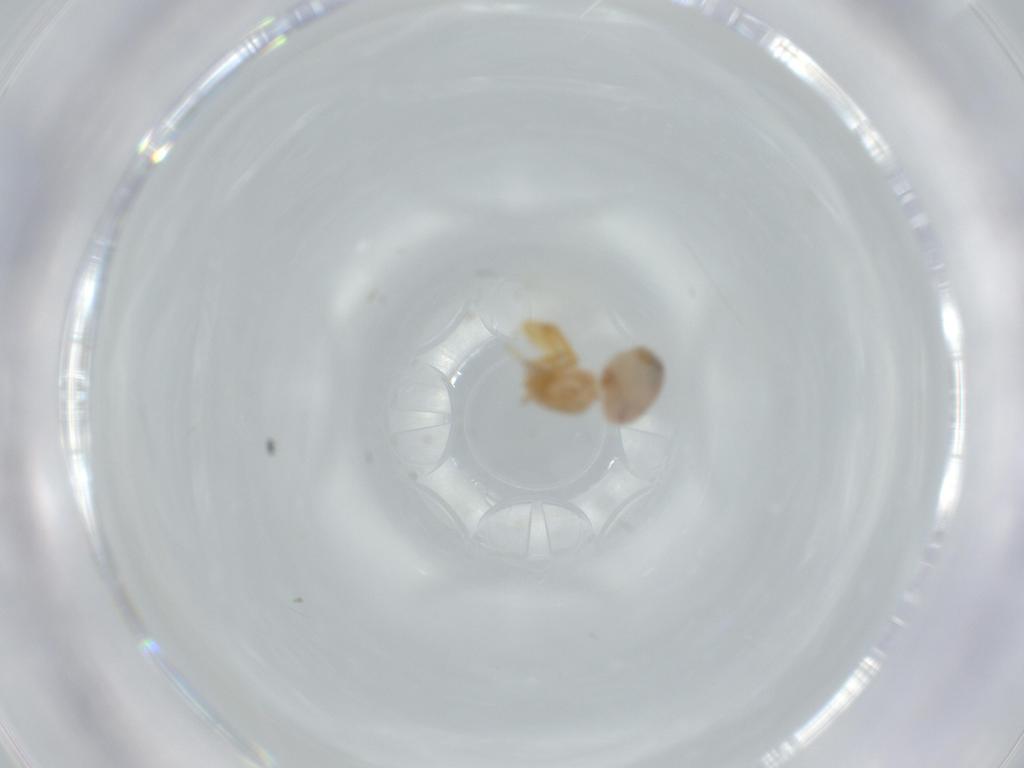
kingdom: Animalia
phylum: Arthropoda
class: Arachnida
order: Araneae
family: Oonopidae
